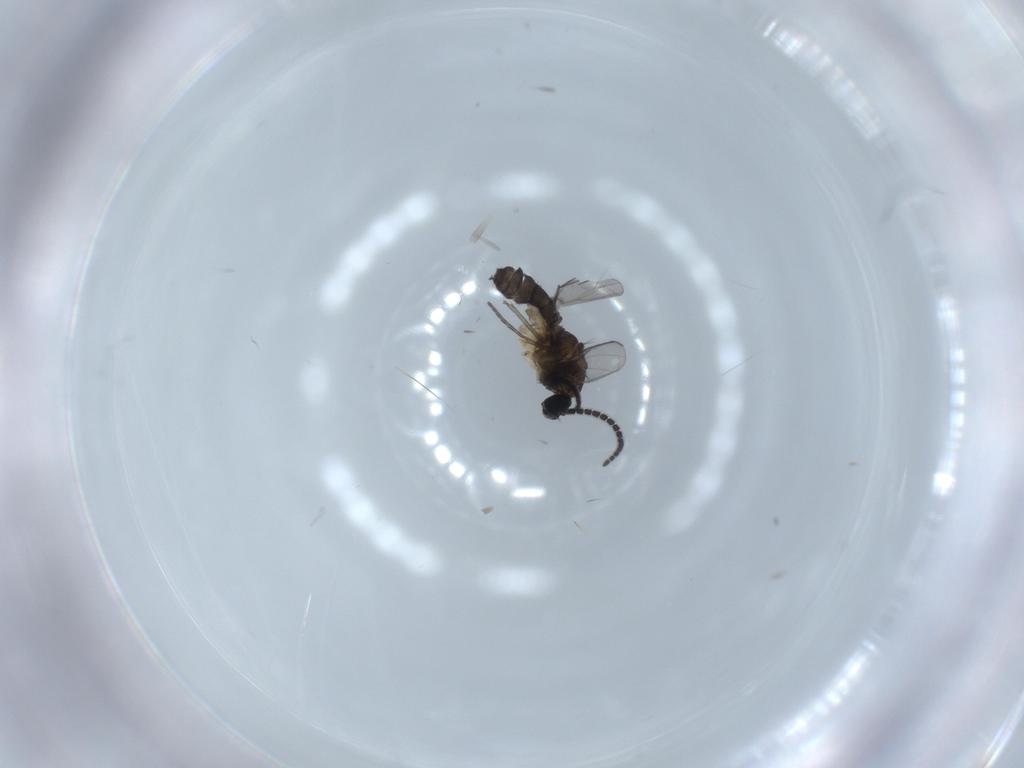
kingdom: Animalia
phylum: Arthropoda
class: Insecta
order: Diptera
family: Sciaridae
